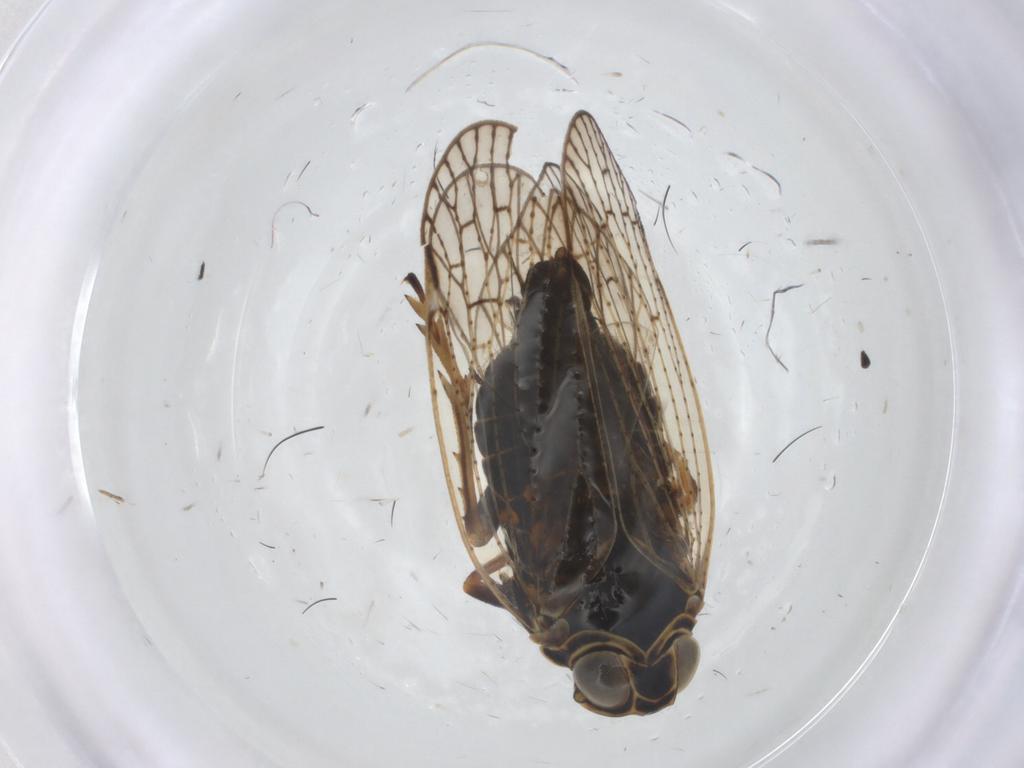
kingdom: Animalia
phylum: Arthropoda
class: Insecta
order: Hemiptera
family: Cixiidae
